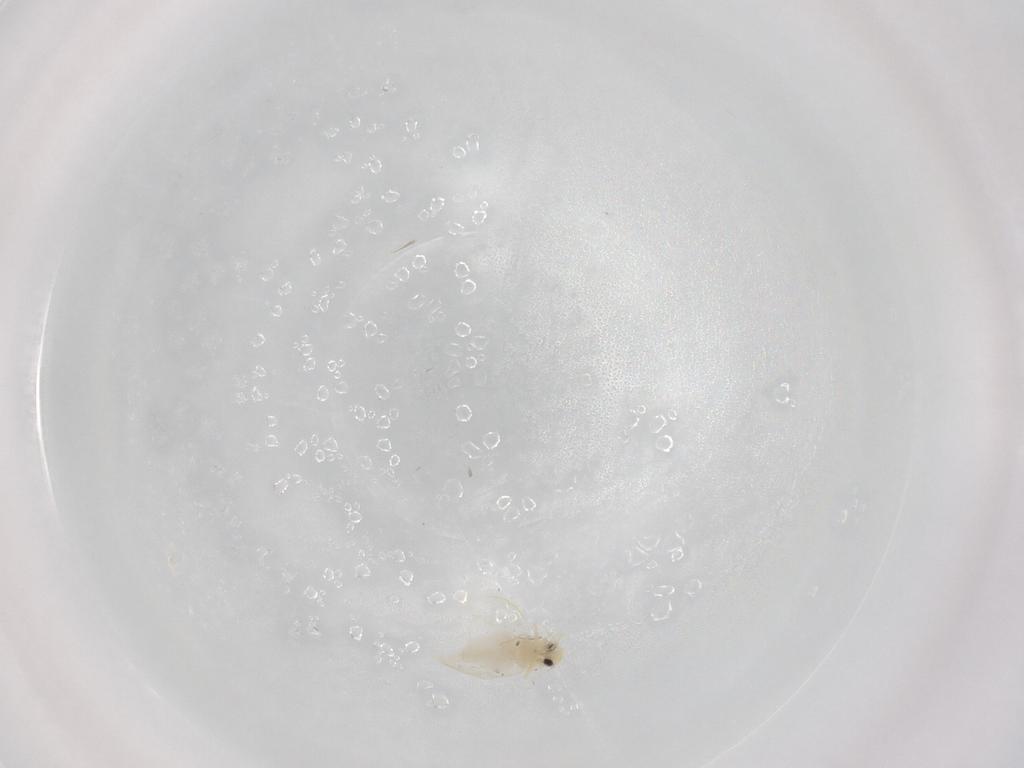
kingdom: Animalia
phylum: Arthropoda
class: Insecta
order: Hemiptera
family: Aleyrodidae
